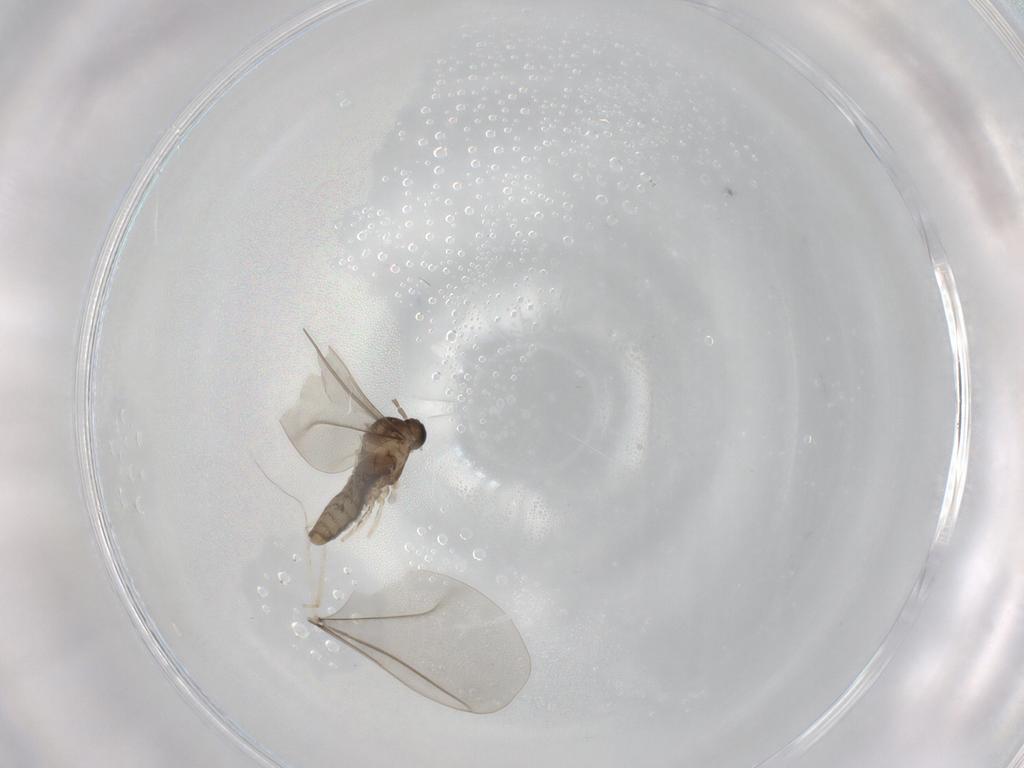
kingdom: Animalia
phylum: Arthropoda
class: Insecta
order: Diptera
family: Cecidomyiidae
